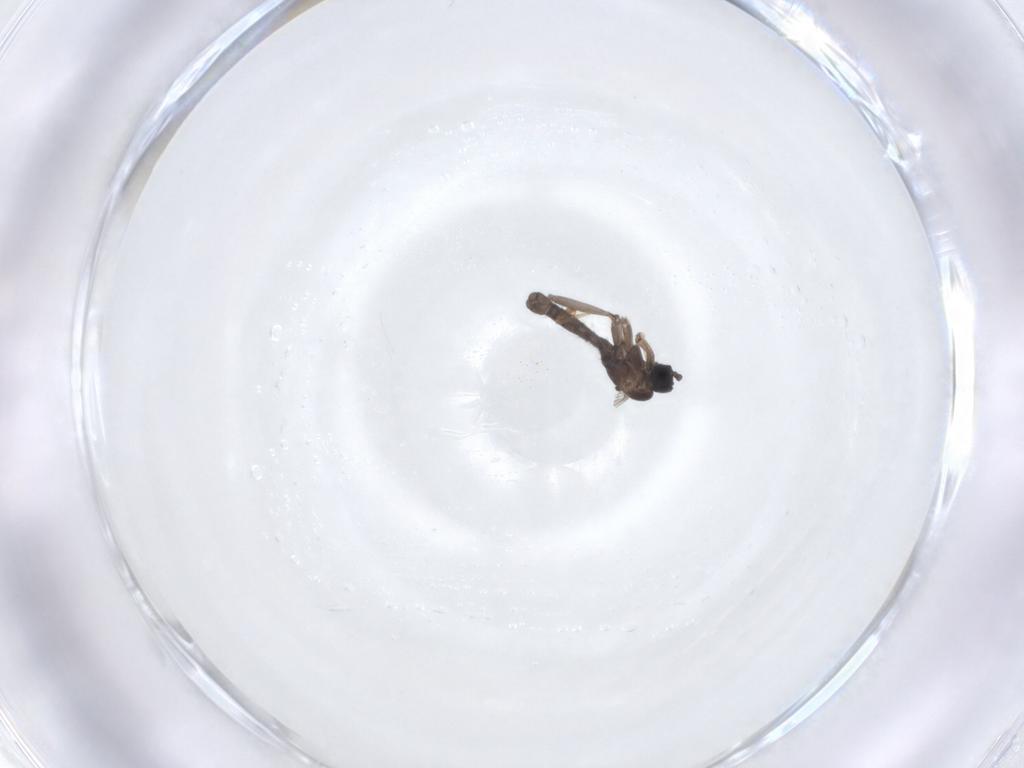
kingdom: Animalia
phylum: Arthropoda
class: Insecta
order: Diptera
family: Sciaridae
